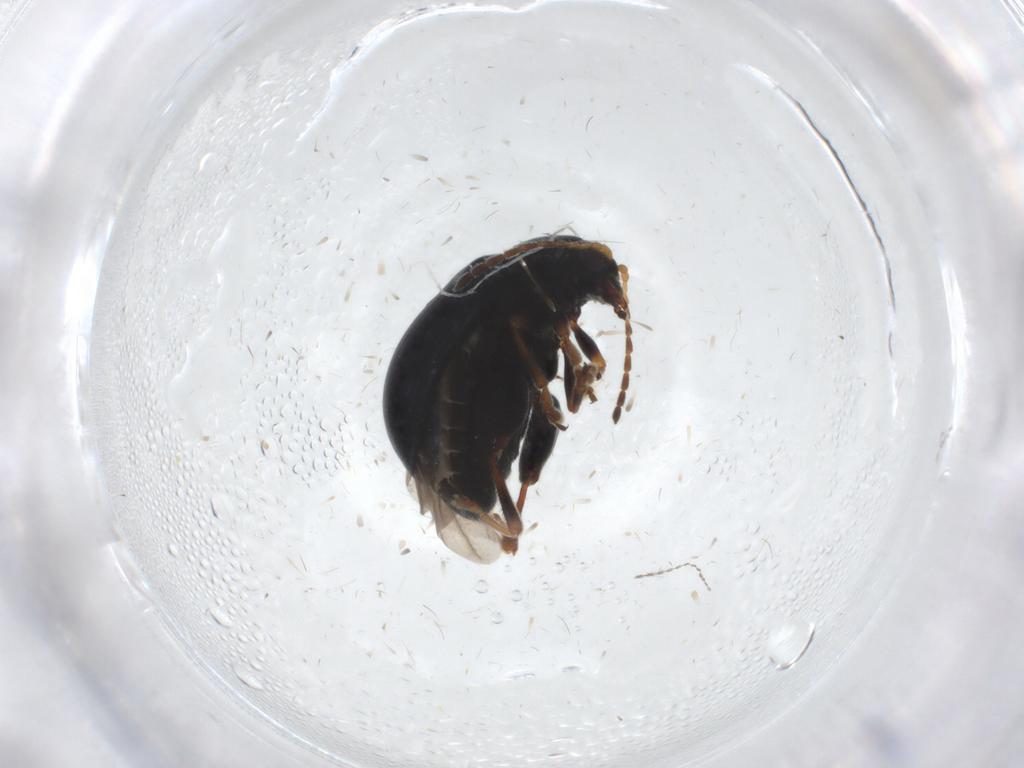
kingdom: Animalia
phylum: Arthropoda
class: Insecta
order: Coleoptera
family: Chrysomelidae
